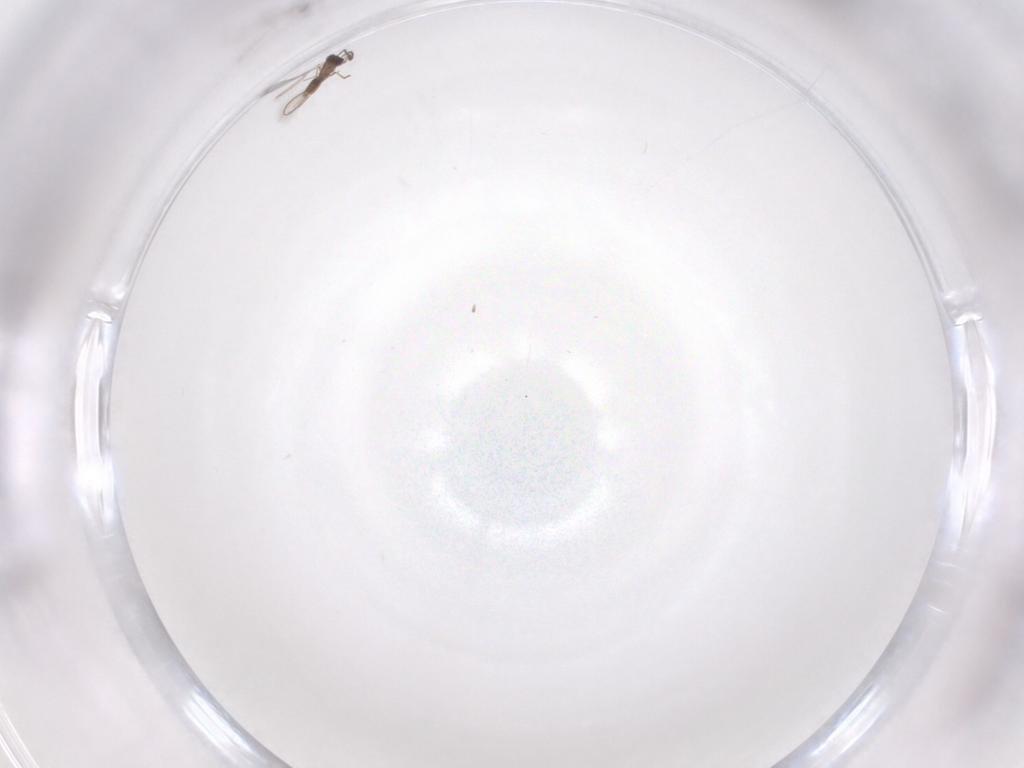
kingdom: Animalia
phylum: Arthropoda
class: Insecta
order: Hymenoptera
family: Mymaridae
